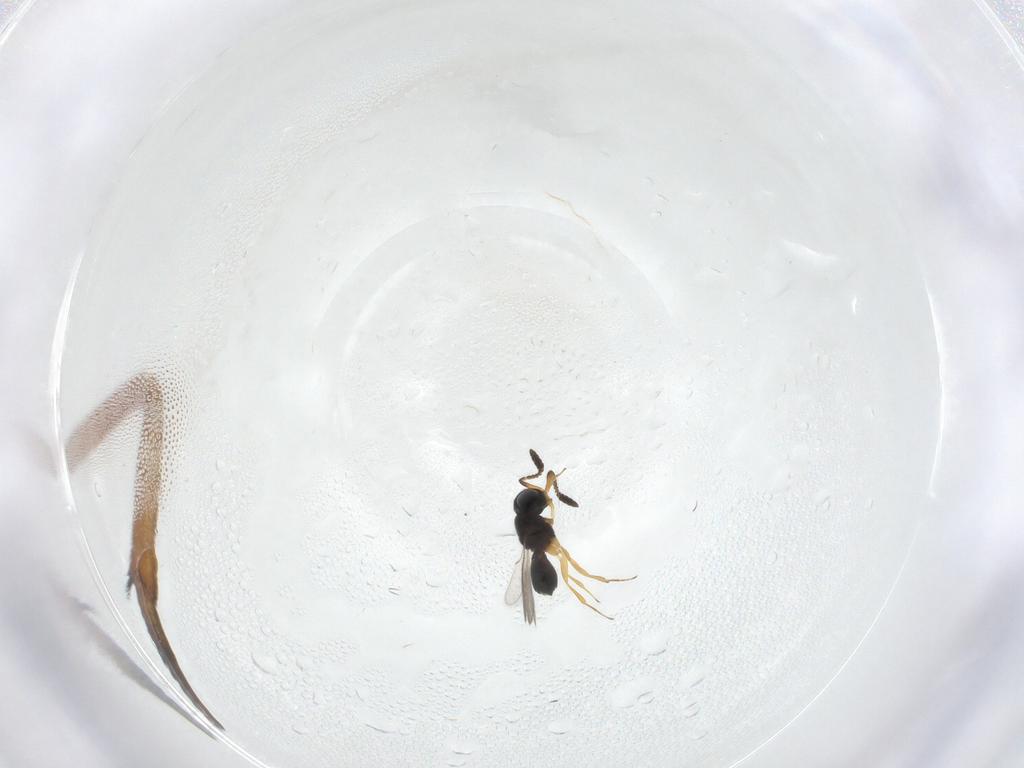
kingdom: Animalia
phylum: Arthropoda
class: Insecta
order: Hymenoptera
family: Scelionidae
